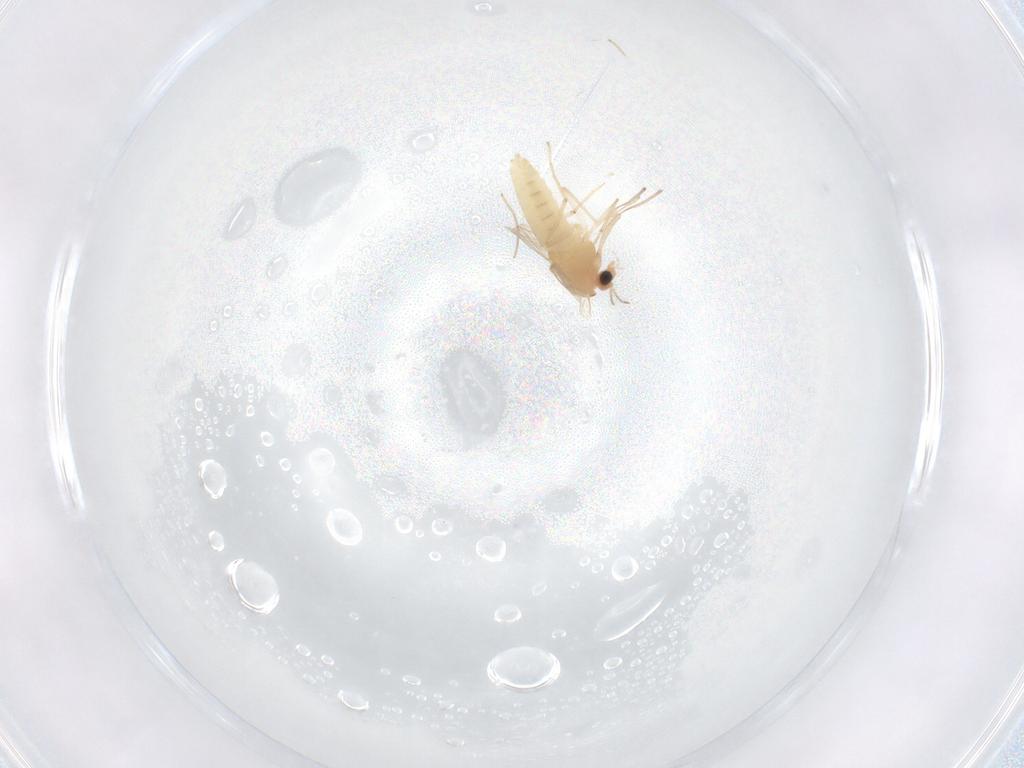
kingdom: Animalia
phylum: Arthropoda
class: Insecta
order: Diptera
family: Chironomidae
